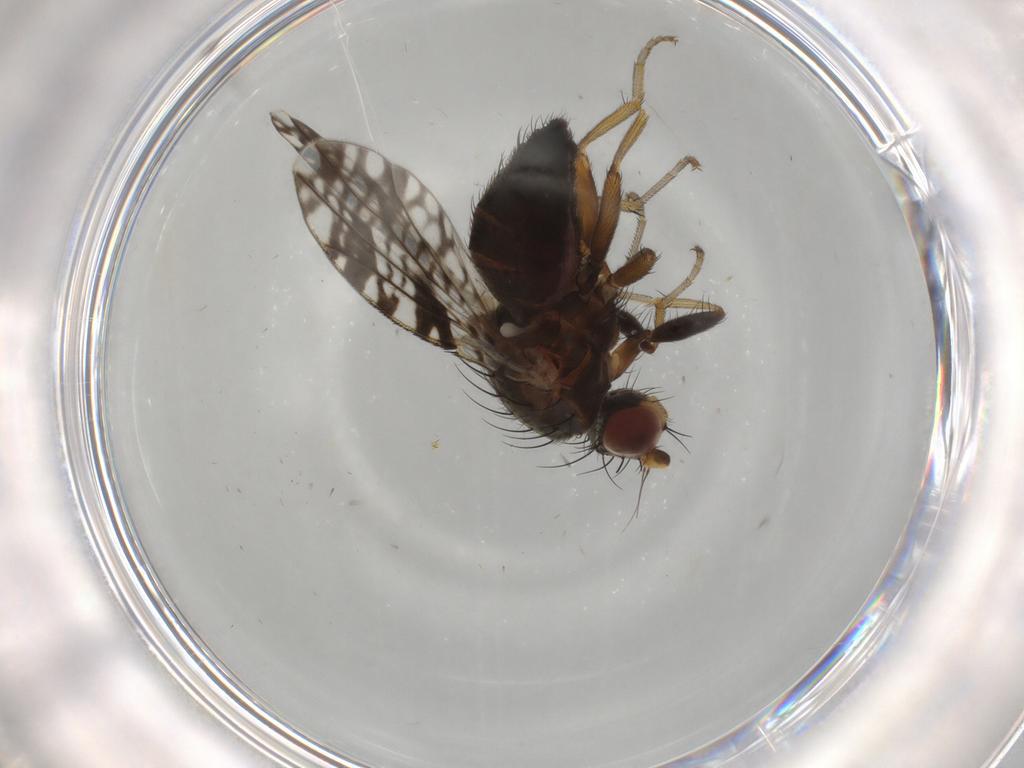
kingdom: Animalia
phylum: Arthropoda
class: Insecta
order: Diptera
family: Tephritidae
